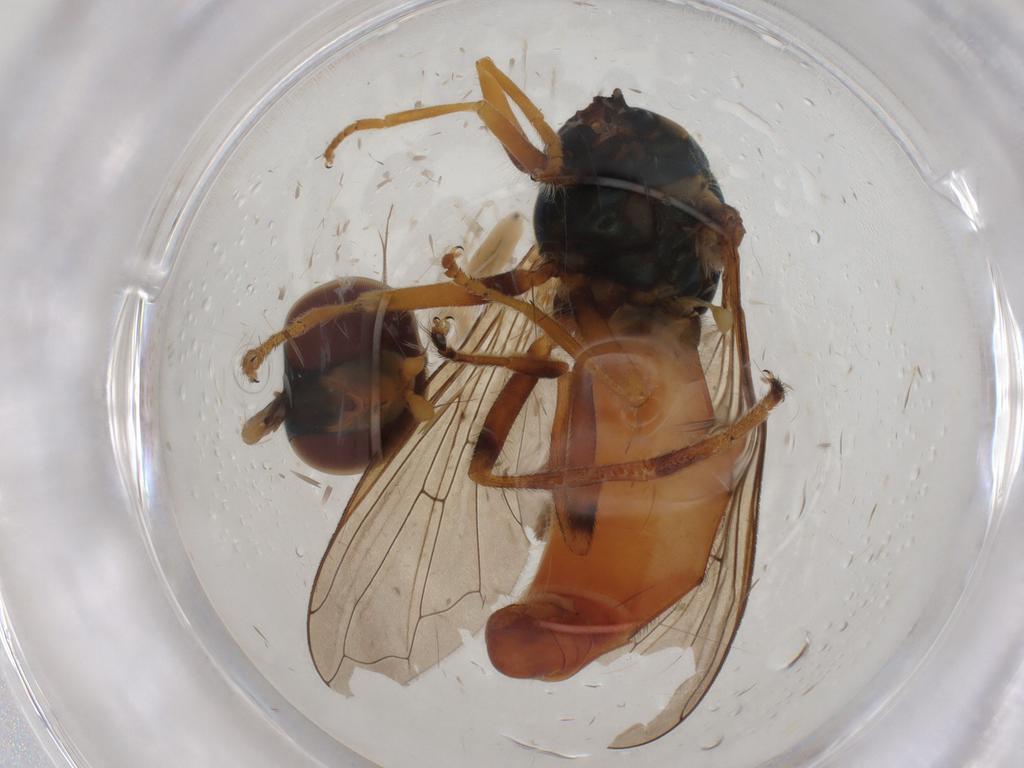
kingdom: Animalia
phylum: Arthropoda
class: Insecta
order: Diptera
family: Syrphidae
